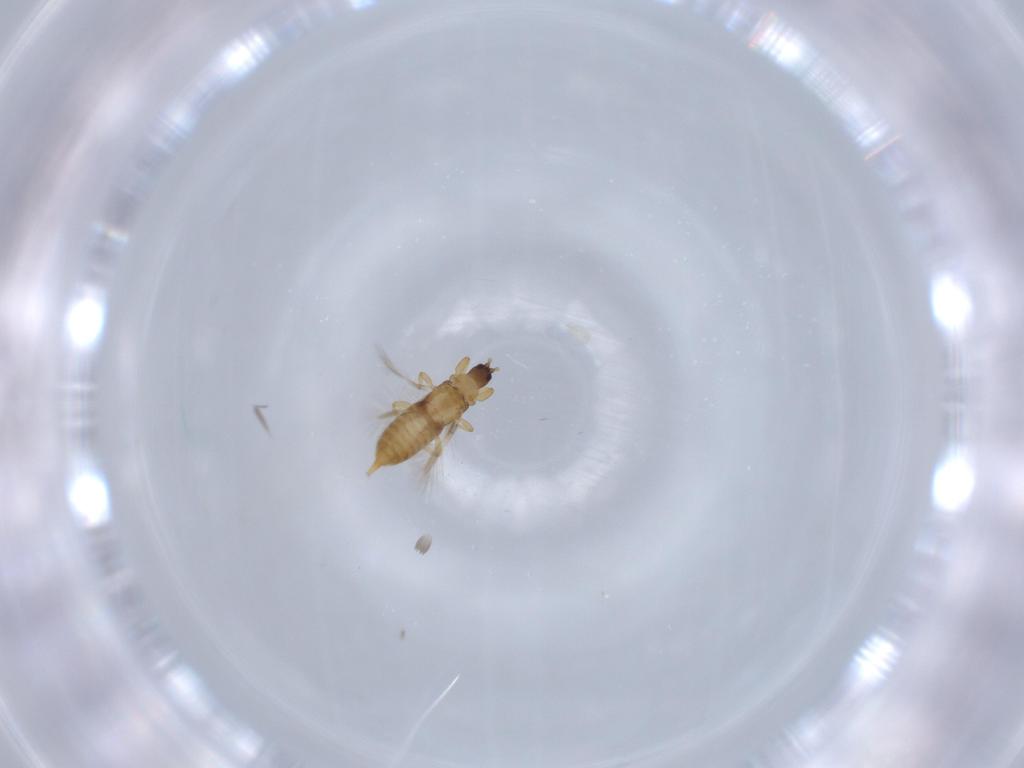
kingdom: Animalia
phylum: Arthropoda
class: Insecta
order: Thysanoptera
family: Phlaeothripidae
